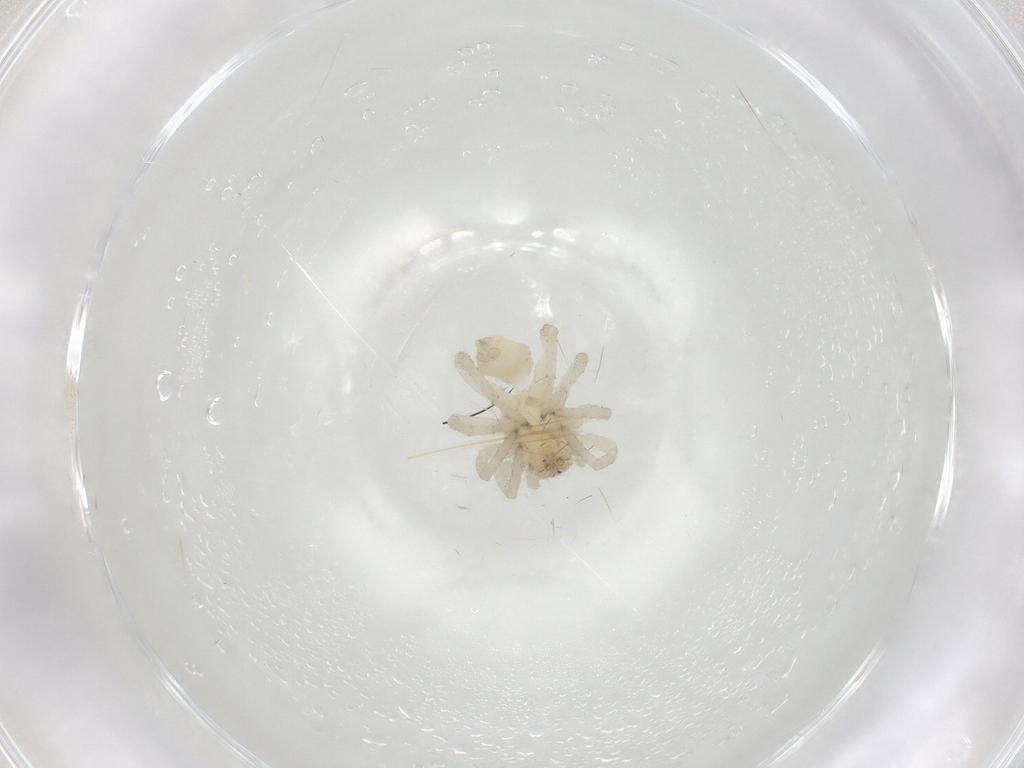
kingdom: Animalia
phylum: Arthropoda
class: Arachnida
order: Araneae
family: Clubionidae
